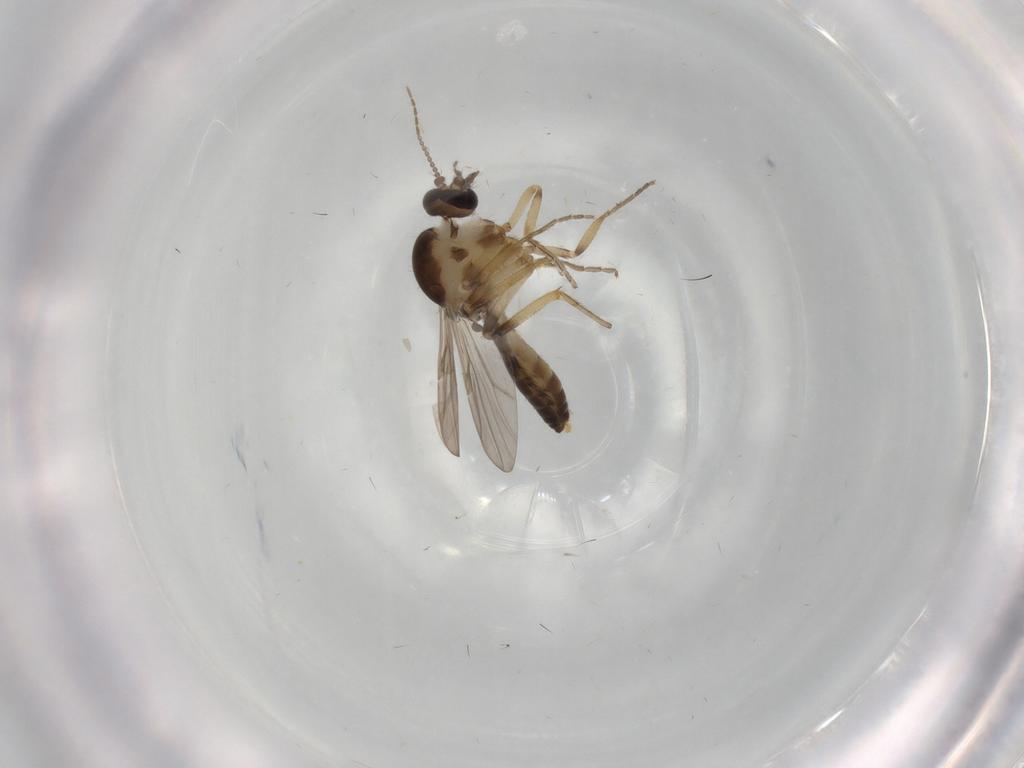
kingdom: Animalia
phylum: Arthropoda
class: Insecta
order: Diptera
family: Ceratopogonidae
